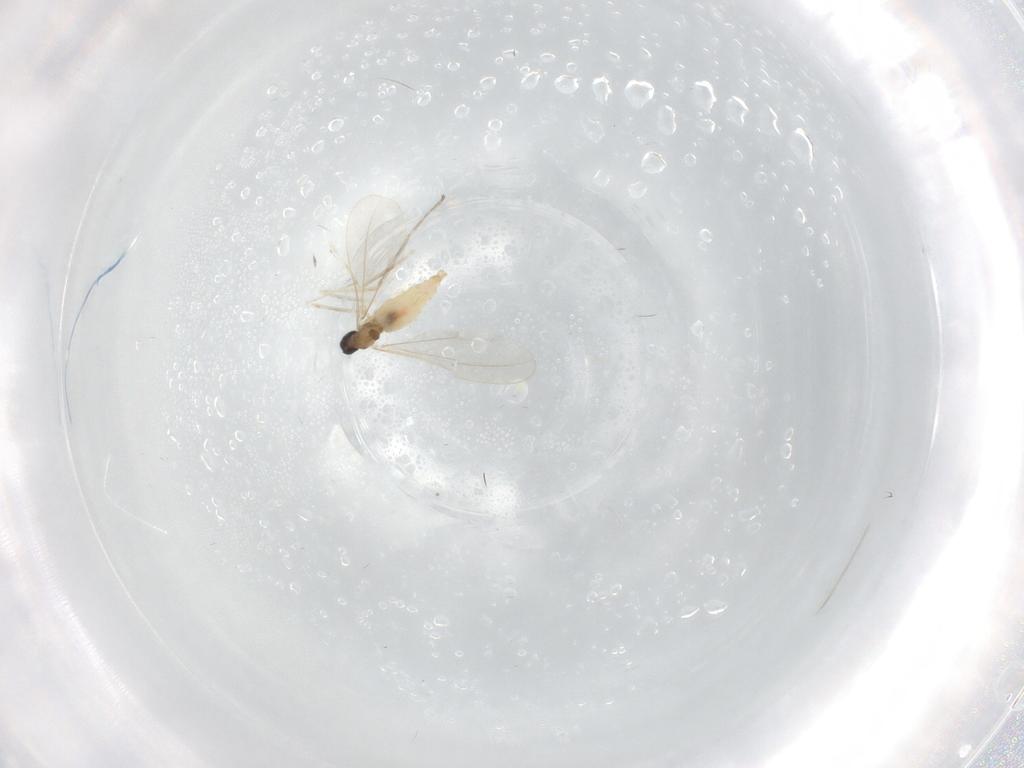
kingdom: Animalia
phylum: Arthropoda
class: Insecta
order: Diptera
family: Cecidomyiidae
